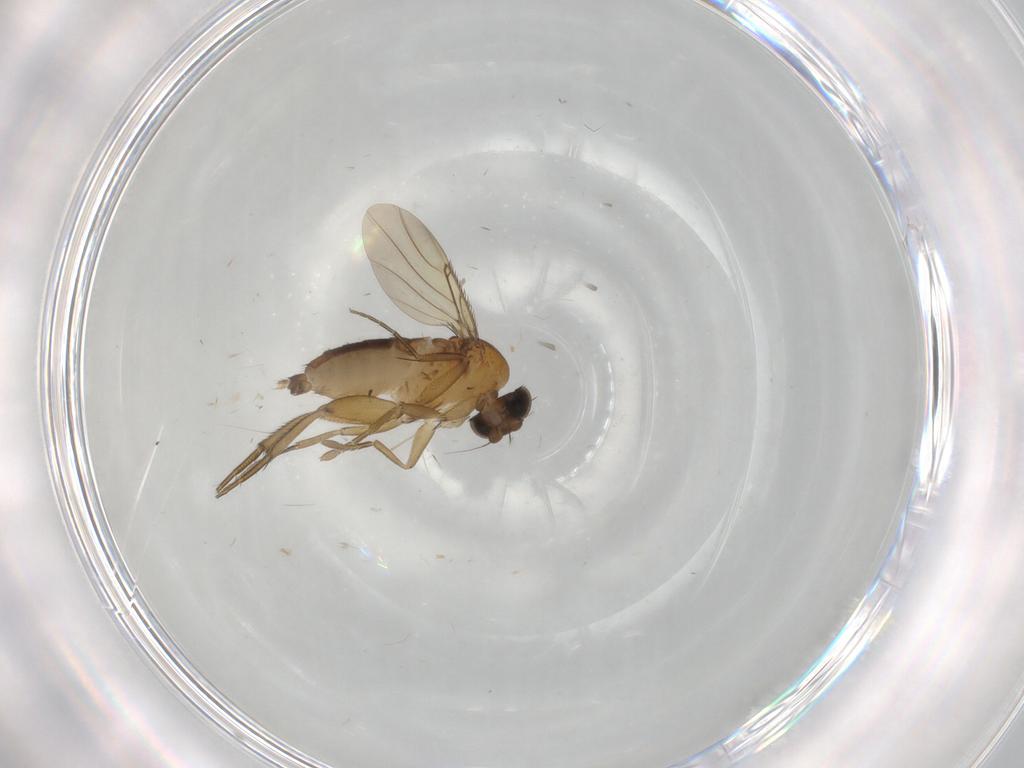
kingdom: Animalia
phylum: Arthropoda
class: Insecta
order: Diptera
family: Phoridae
